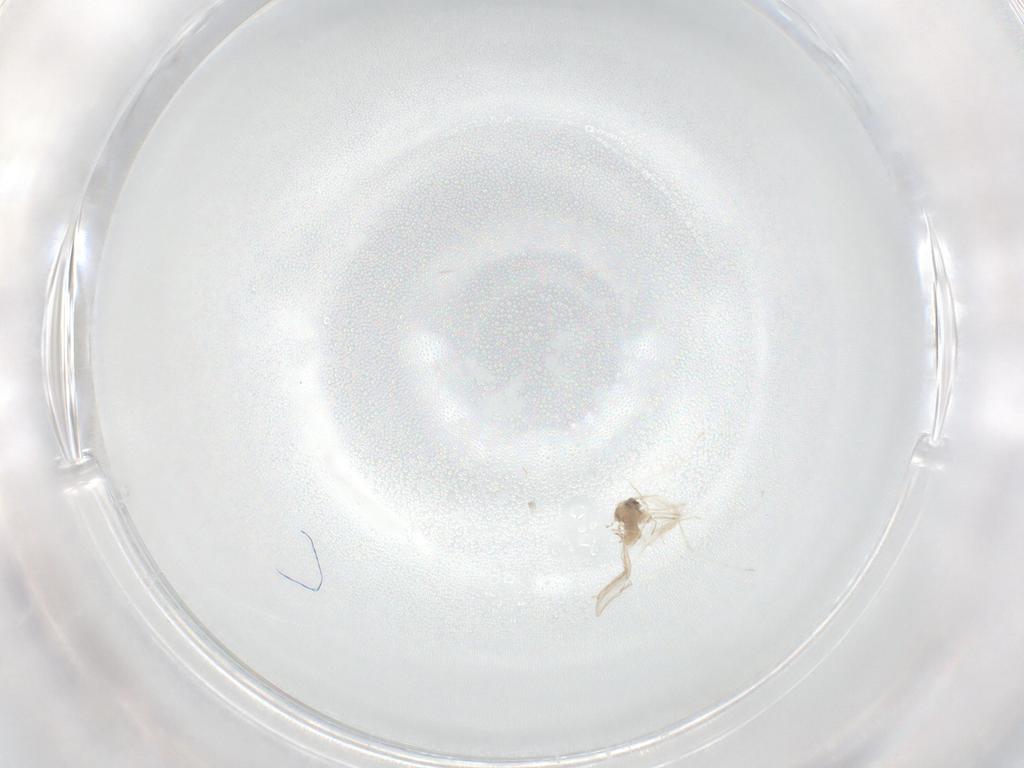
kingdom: Animalia
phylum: Arthropoda
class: Insecta
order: Diptera
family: Cecidomyiidae
